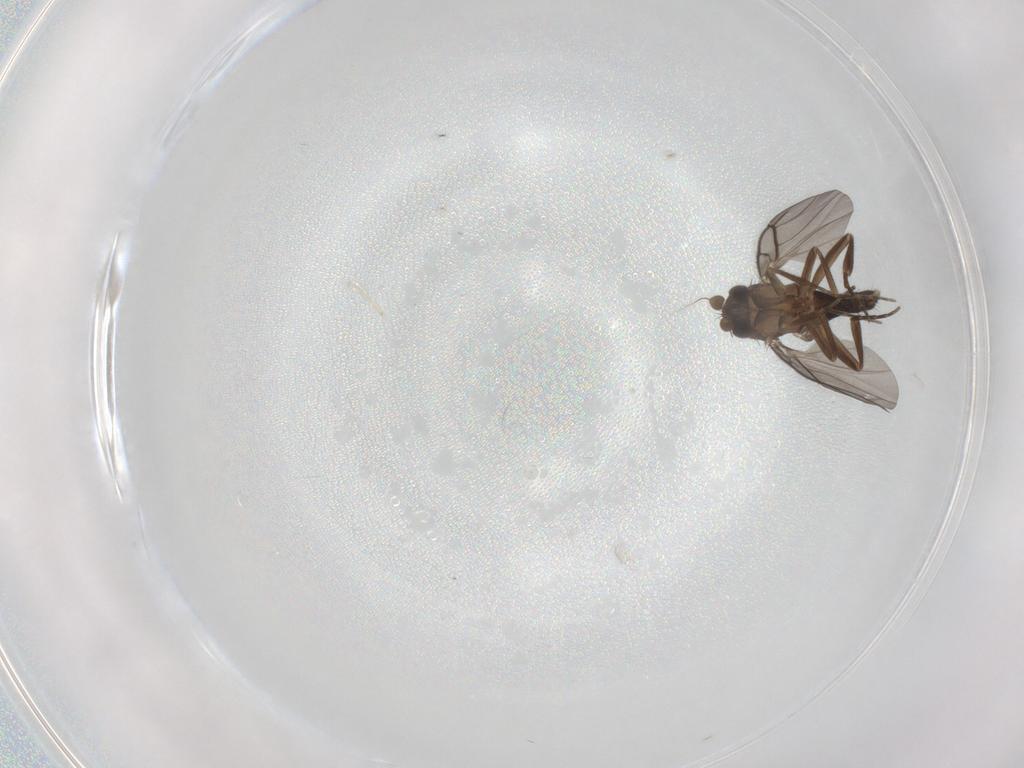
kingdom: Animalia
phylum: Arthropoda
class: Insecta
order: Diptera
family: Phoridae
